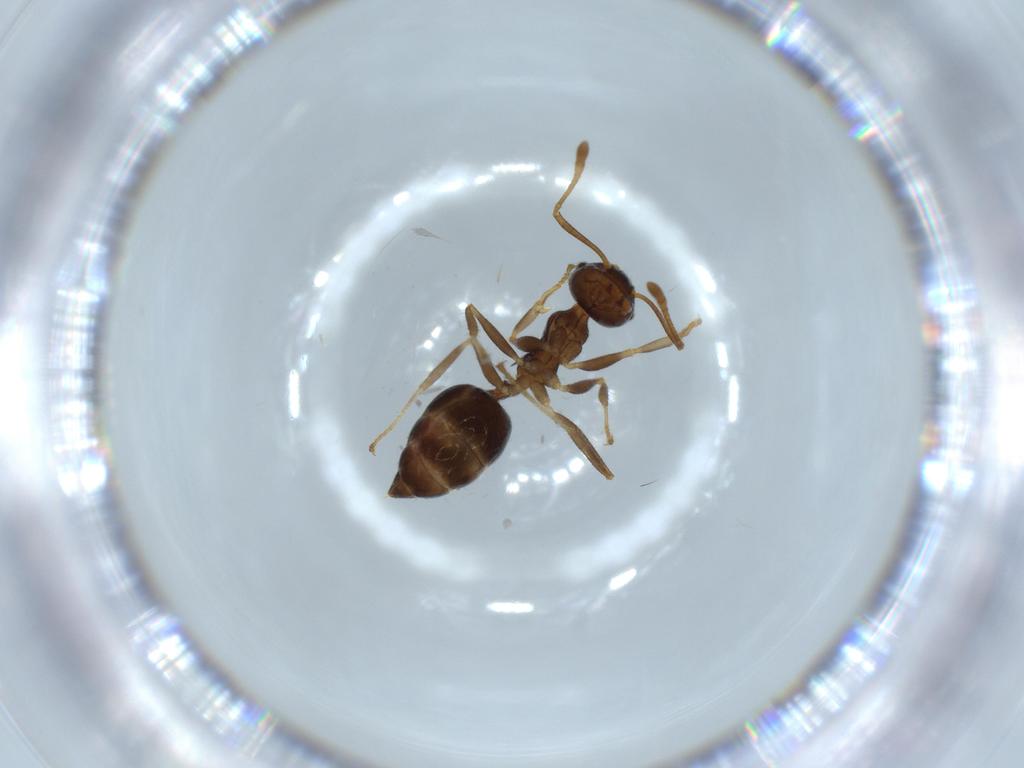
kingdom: Animalia
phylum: Arthropoda
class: Insecta
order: Hymenoptera
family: Formicidae
